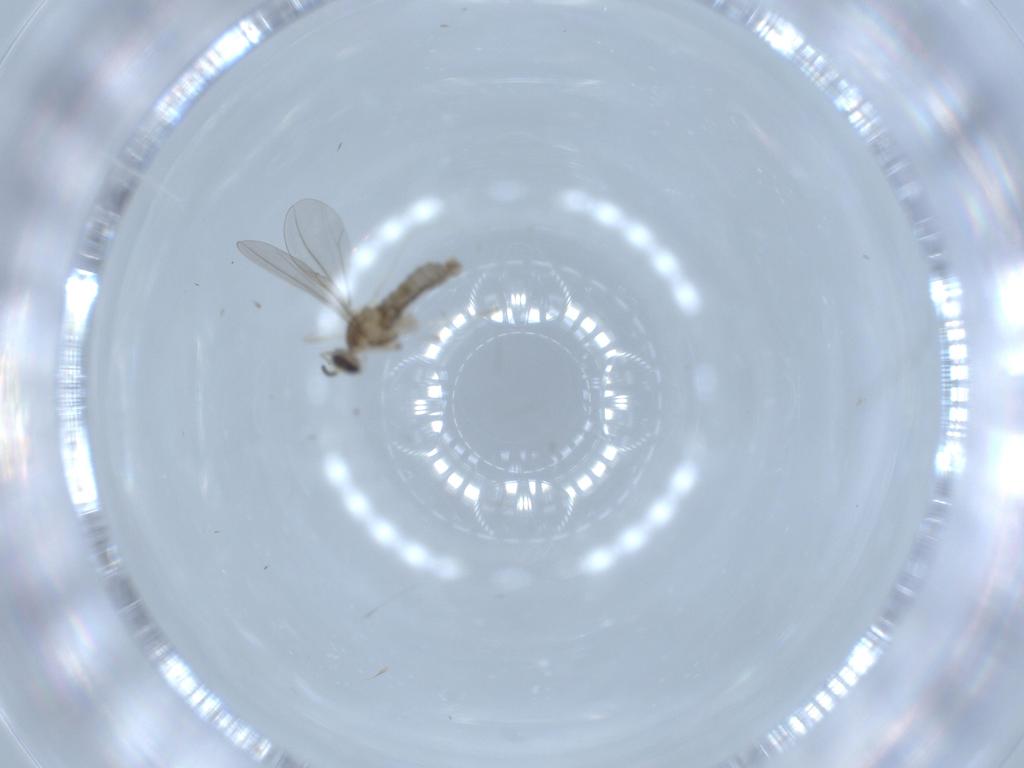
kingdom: Animalia
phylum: Arthropoda
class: Insecta
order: Diptera
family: Cecidomyiidae
